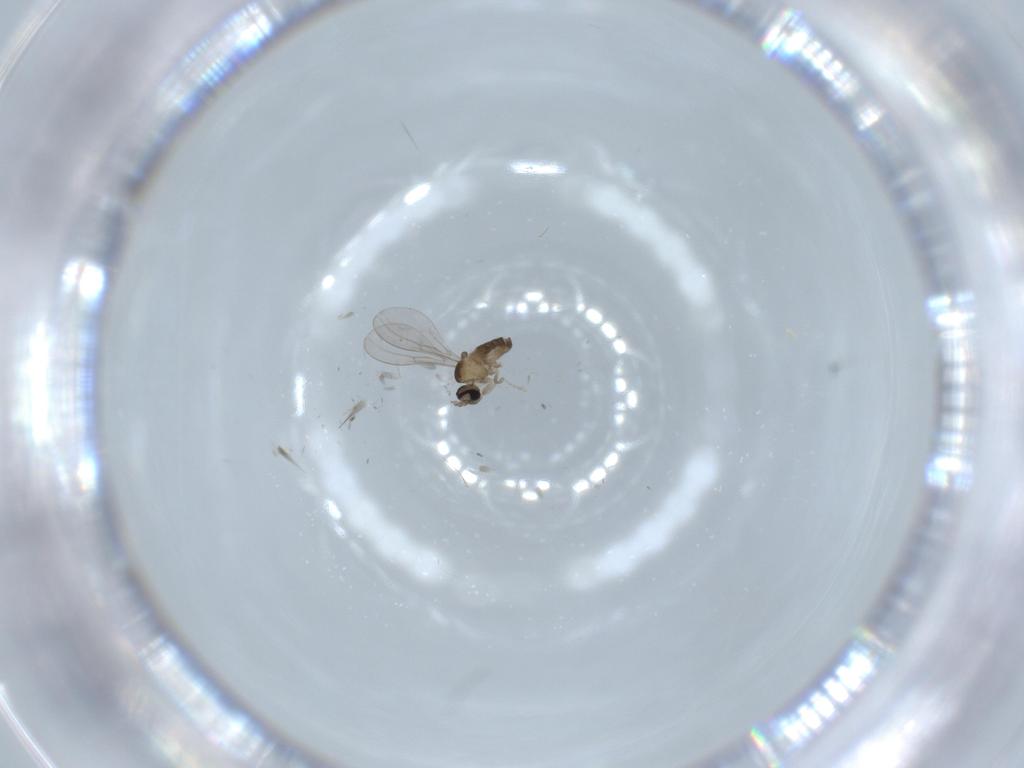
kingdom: Animalia
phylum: Arthropoda
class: Insecta
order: Diptera
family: Cecidomyiidae
